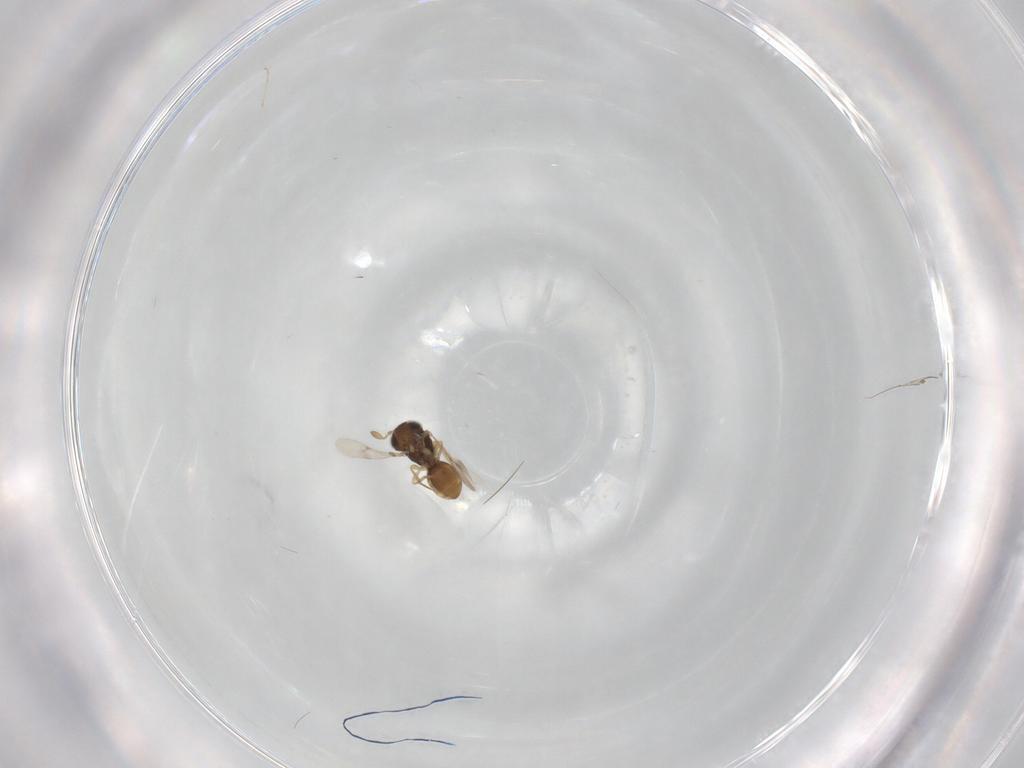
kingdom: Animalia
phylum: Arthropoda
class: Insecta
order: Hymenoptera
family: Scelionidae
